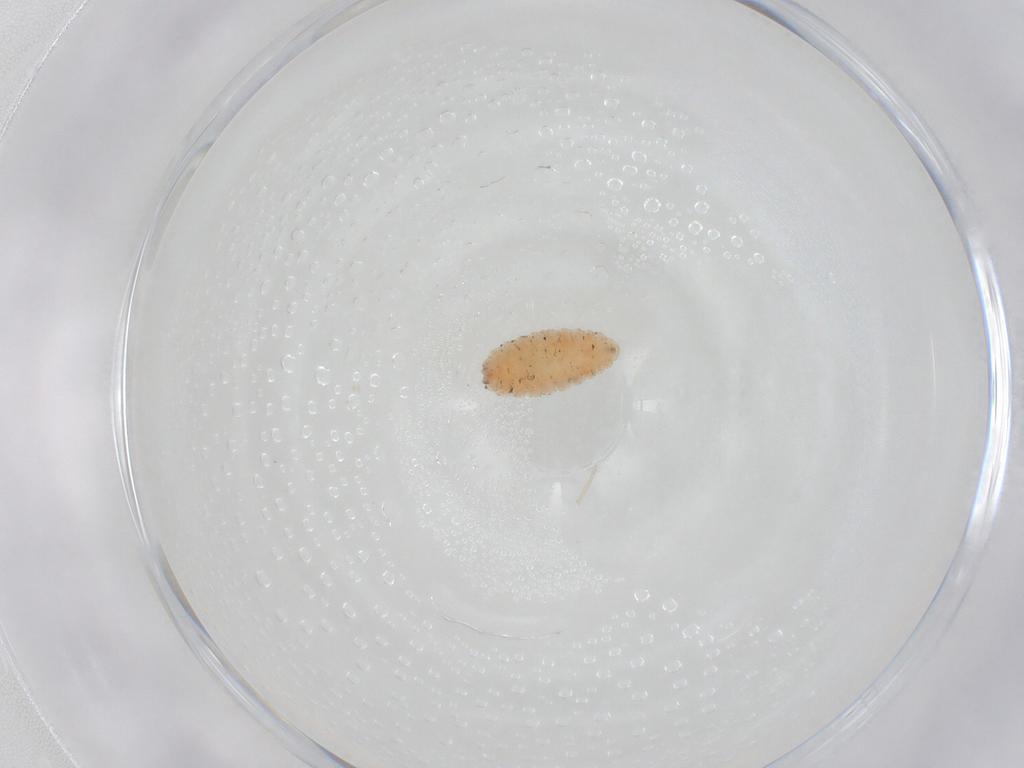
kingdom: Animalia
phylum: Arthropoda
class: Insecta
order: Diptera
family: Cecidomyiidae
